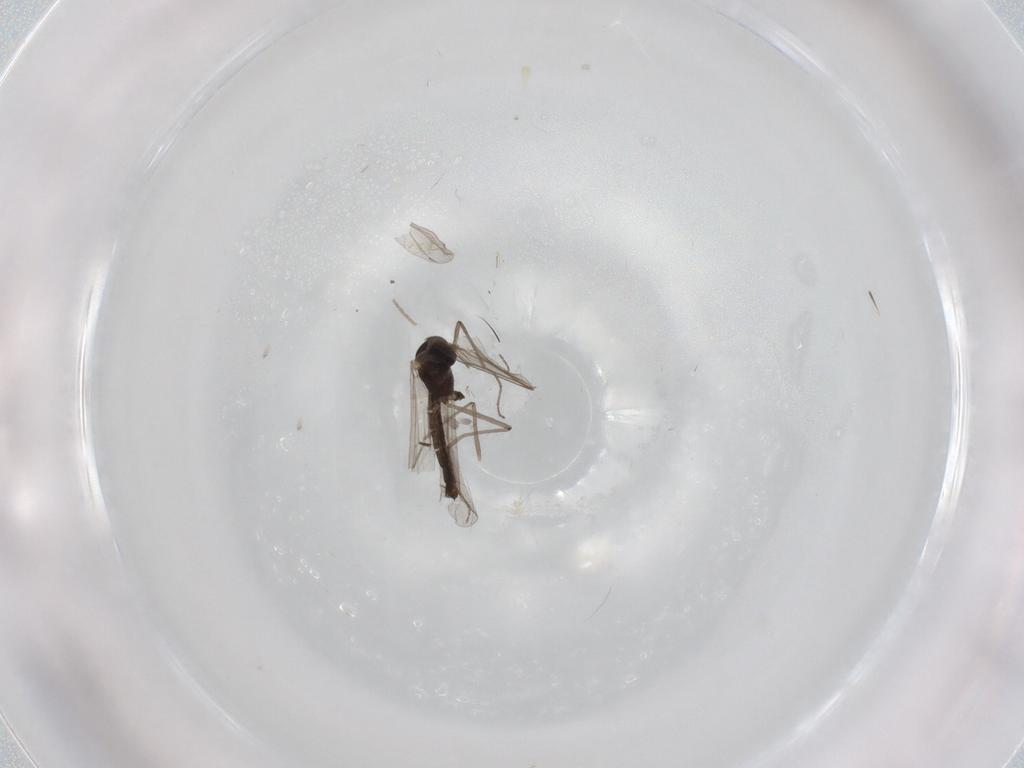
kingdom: Animalia
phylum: Arthropoda
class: Insecta
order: Diptera
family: Chironomidae
